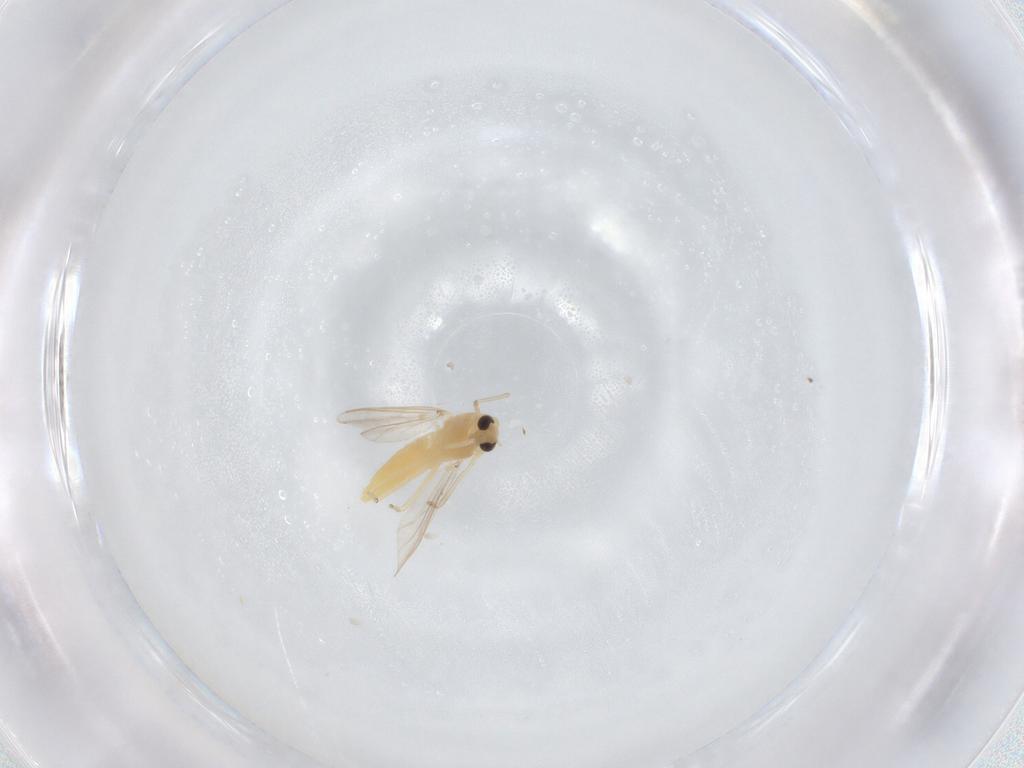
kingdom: Animalia
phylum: Arthropoda
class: Insecta
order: Diptera
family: Chironomidae
